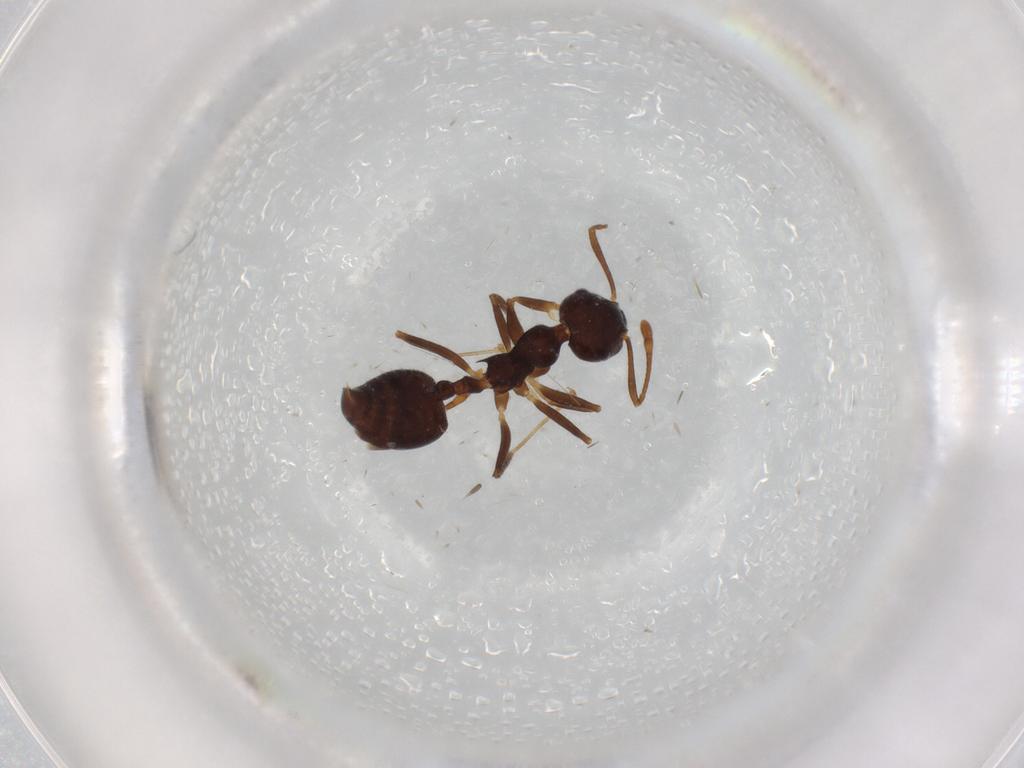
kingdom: Animalia
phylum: Arthropoda
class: Insecta
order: Hymenoptera
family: Formicidae
